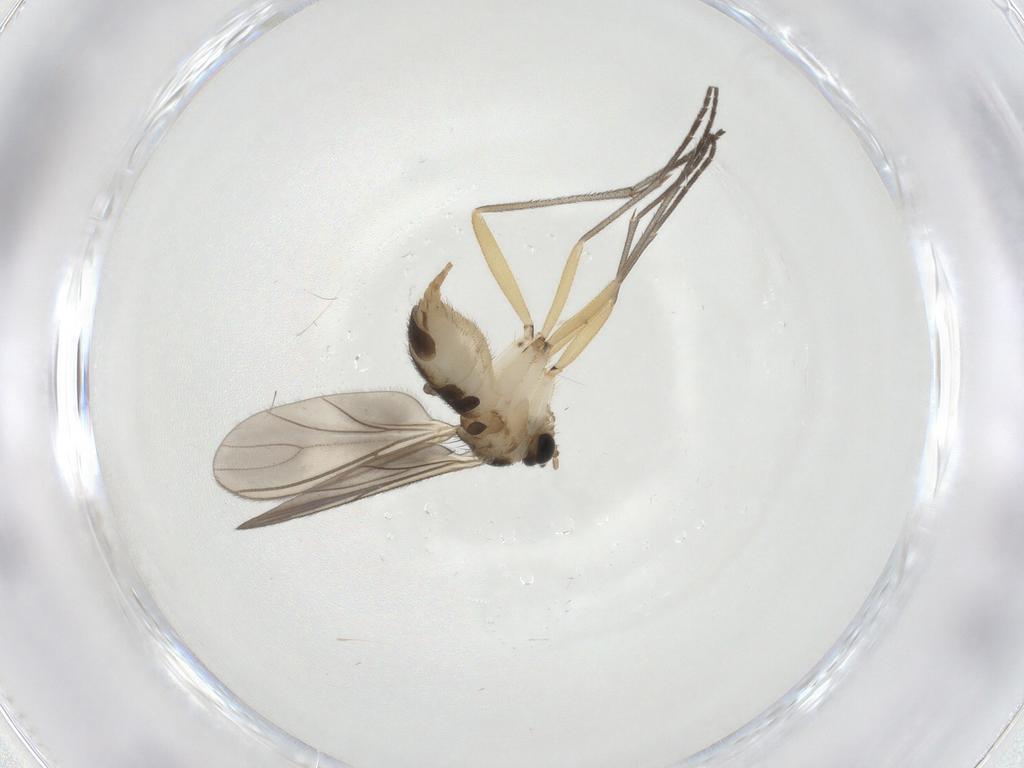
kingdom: Animalia
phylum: Arthropoda
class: Insecta
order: Diptera
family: Sciaridae
